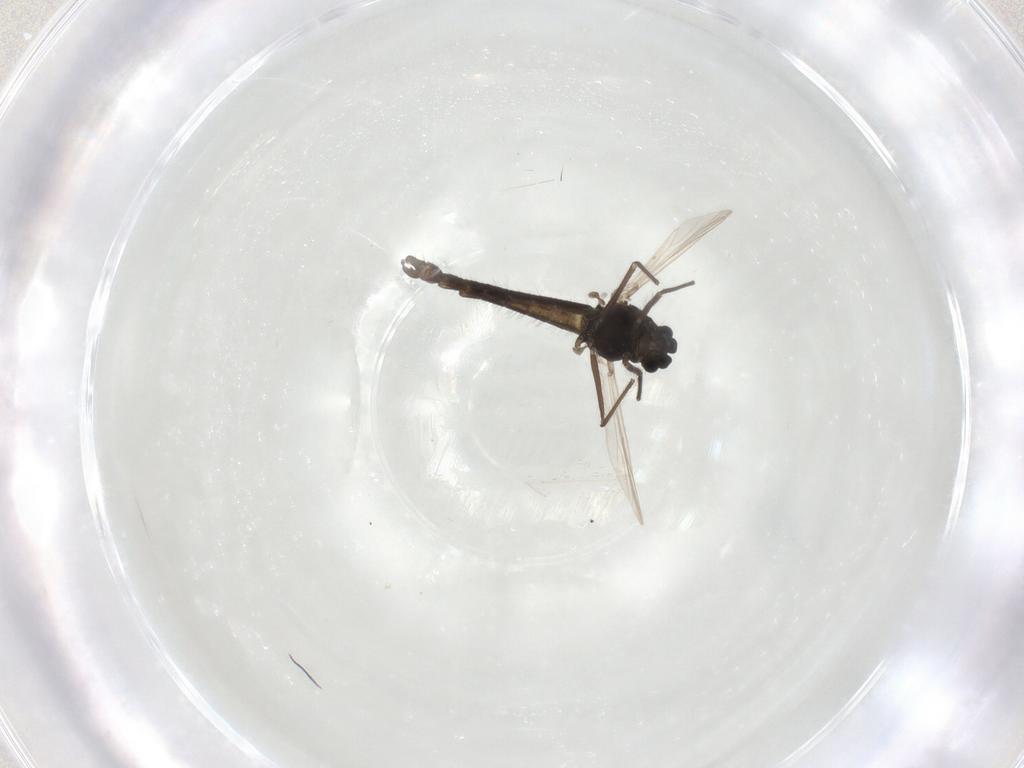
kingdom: Animalia
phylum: Arthropoda
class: Insecta
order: Diptera
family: Chironomidae
